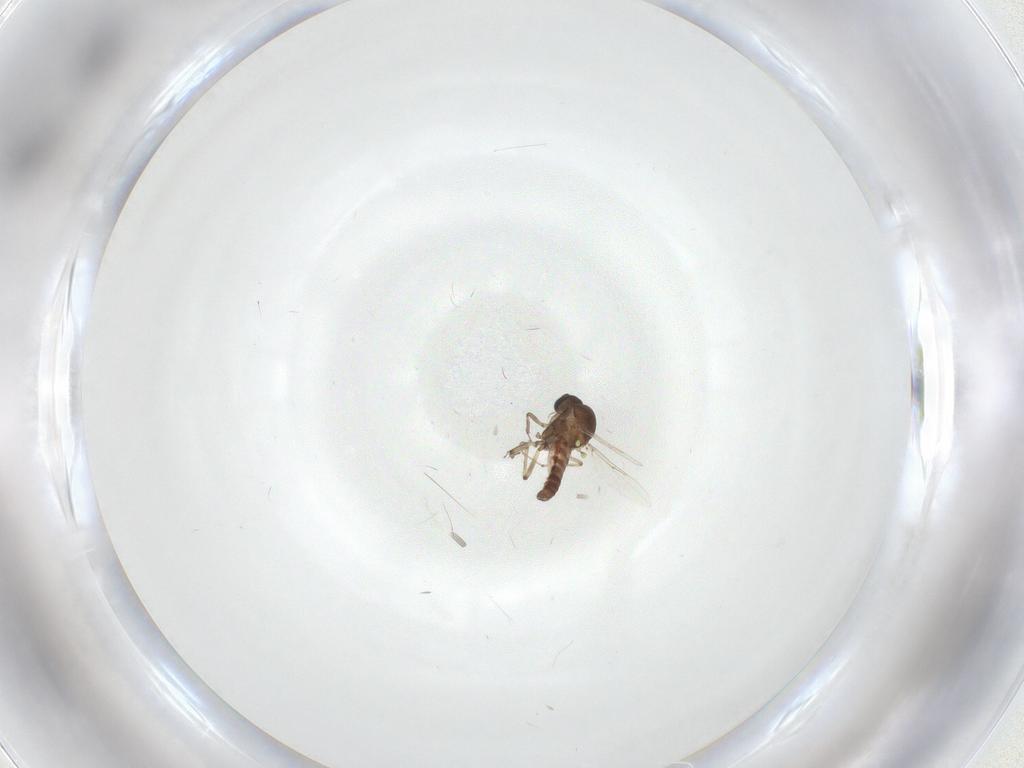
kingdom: Animalia
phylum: Arthropoda
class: Insecta
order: Diptera
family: Ceratopogonidae
